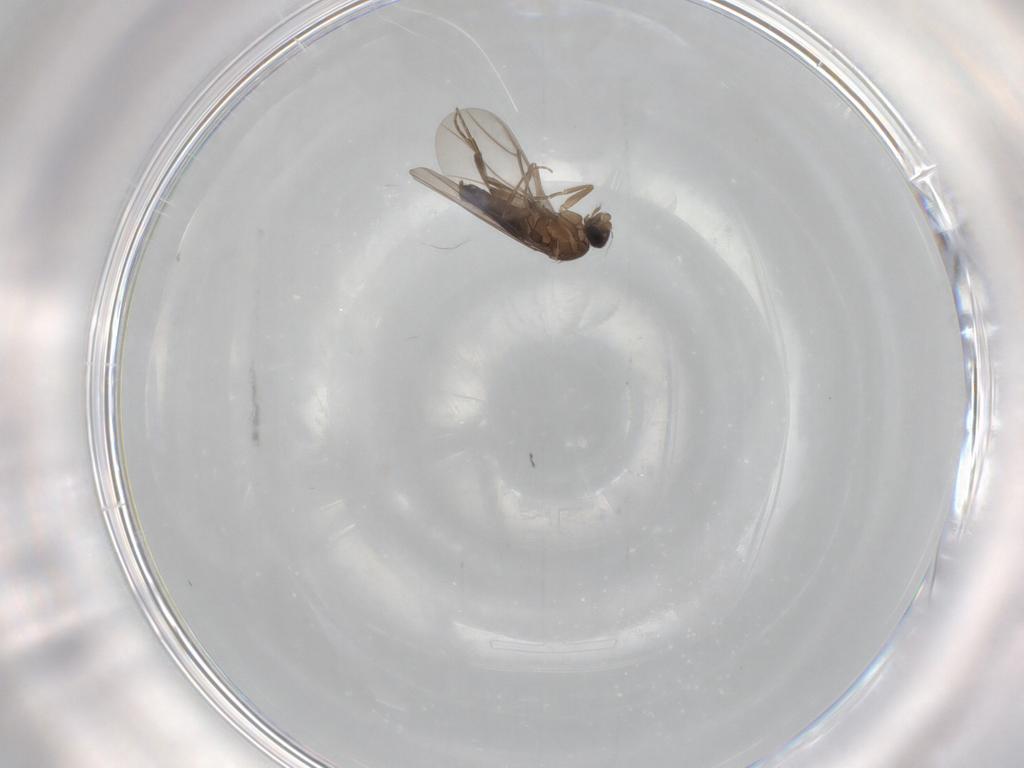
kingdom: Animalia
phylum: Arthropoda
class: Insecta
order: Diptera
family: Phoridae
